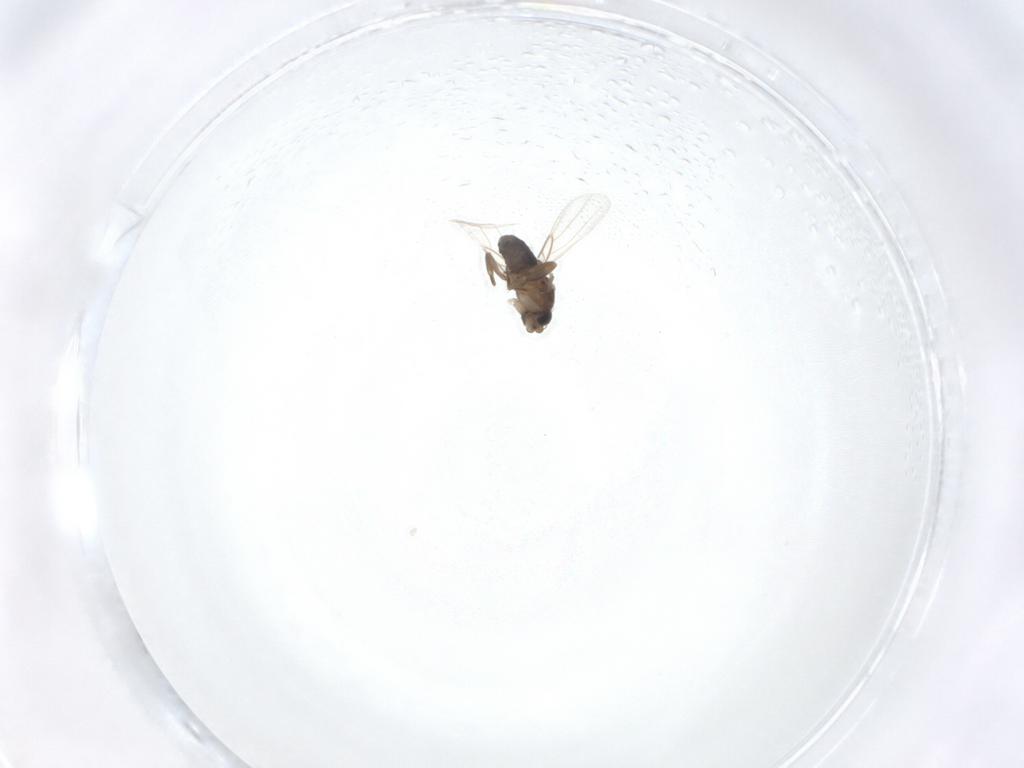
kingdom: Animalia
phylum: Arthropoda
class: Insecta
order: Diptera
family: Phoridae
